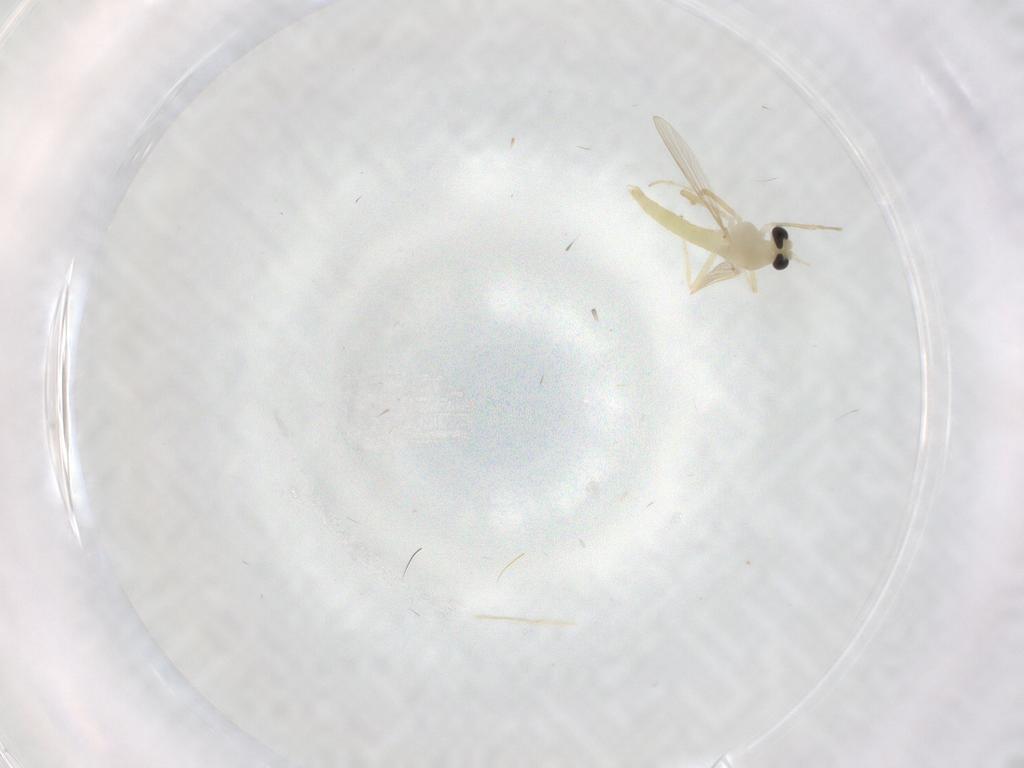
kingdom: Animalia
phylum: Arthropoda
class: Insecta
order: Diptera
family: Chironomidae
